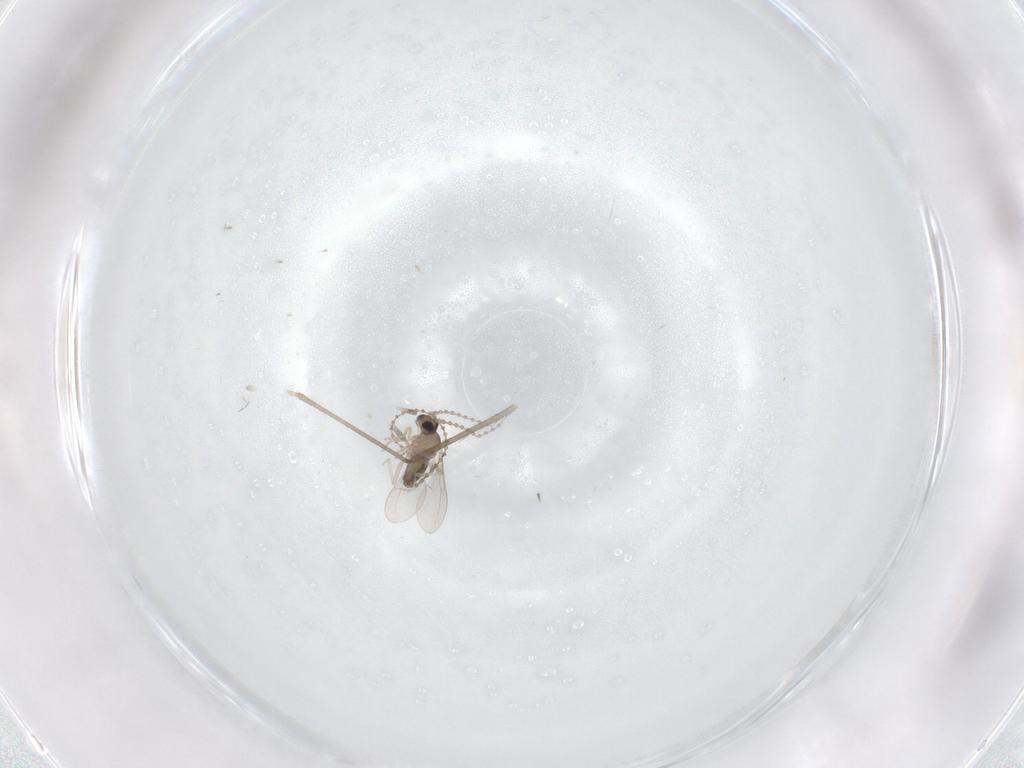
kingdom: Animalia
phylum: Arthropoda
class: Insecta
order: Diptera
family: Cecidomyiidae
